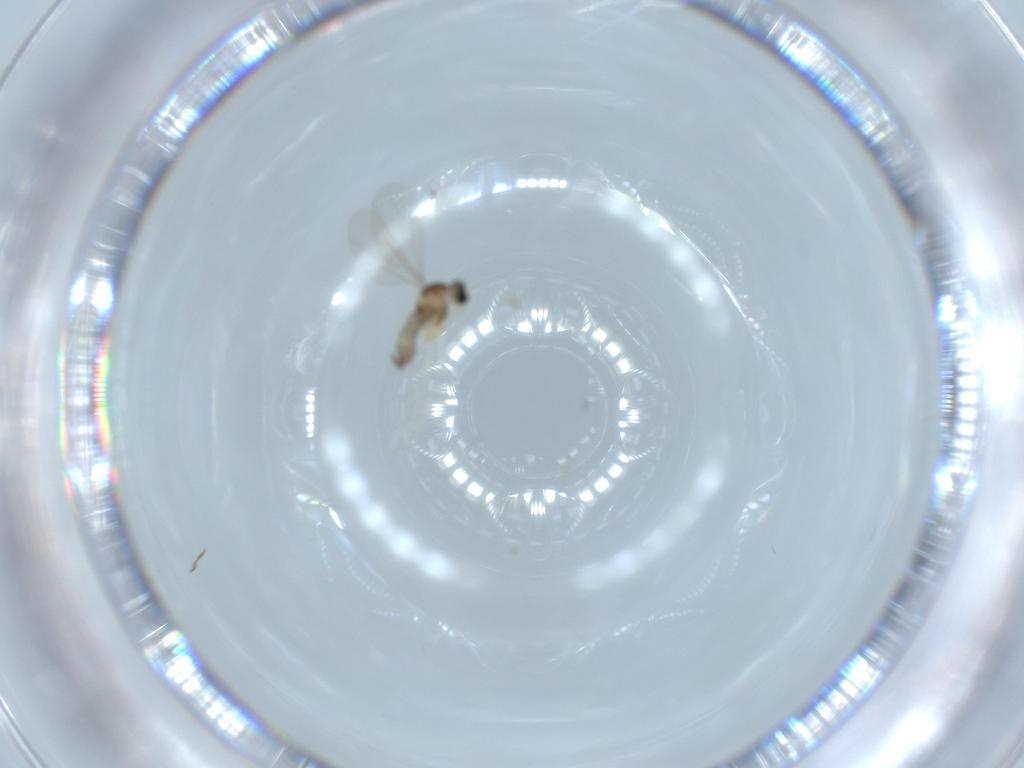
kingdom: Animalia
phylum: Arthropoda
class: Insecta
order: Diptera
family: Cecidomyiidae
